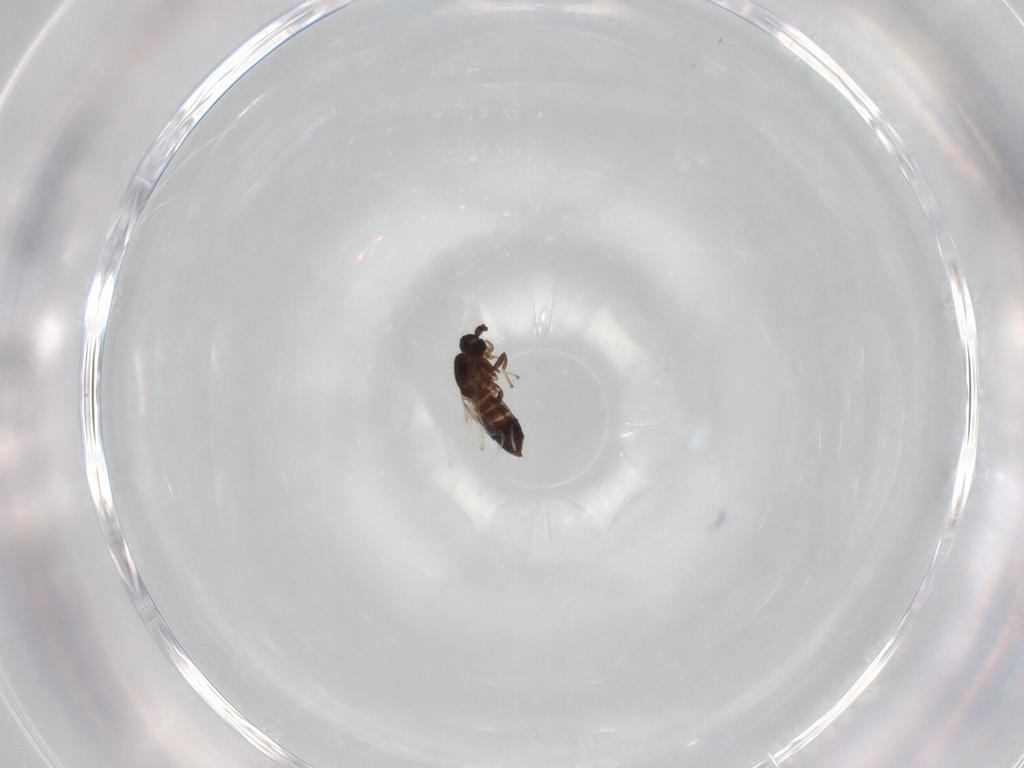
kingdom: Animalia
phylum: Arthropoda
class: Insecta
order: Diptera
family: Scatopsidae
